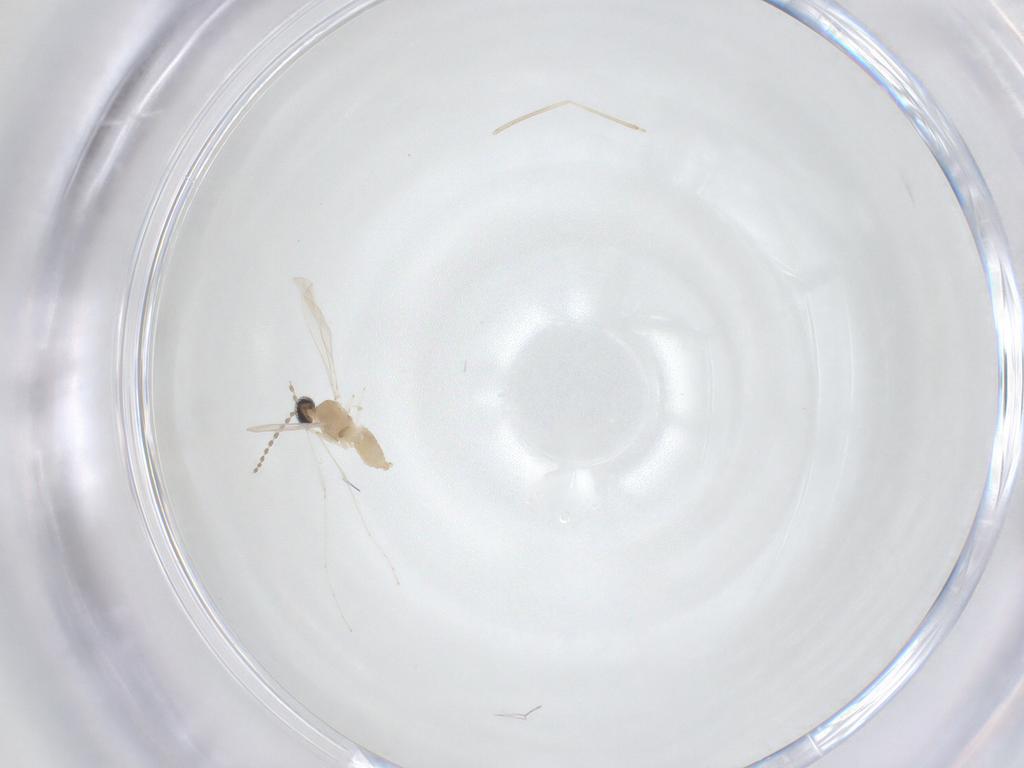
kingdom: Animalia
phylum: Arthropoda
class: Insecta
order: Diptera
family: Cecidomyiidae
